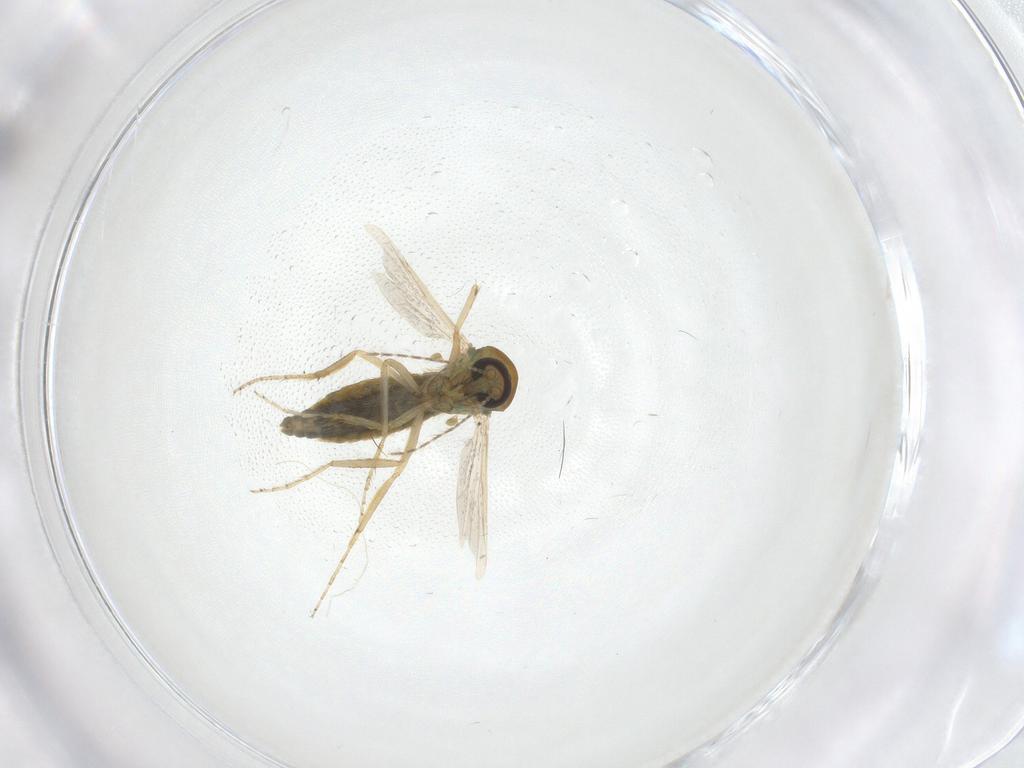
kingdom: Animalia
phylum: Arthropoda
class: Insecta
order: Diptera
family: Ceratopogonidae
